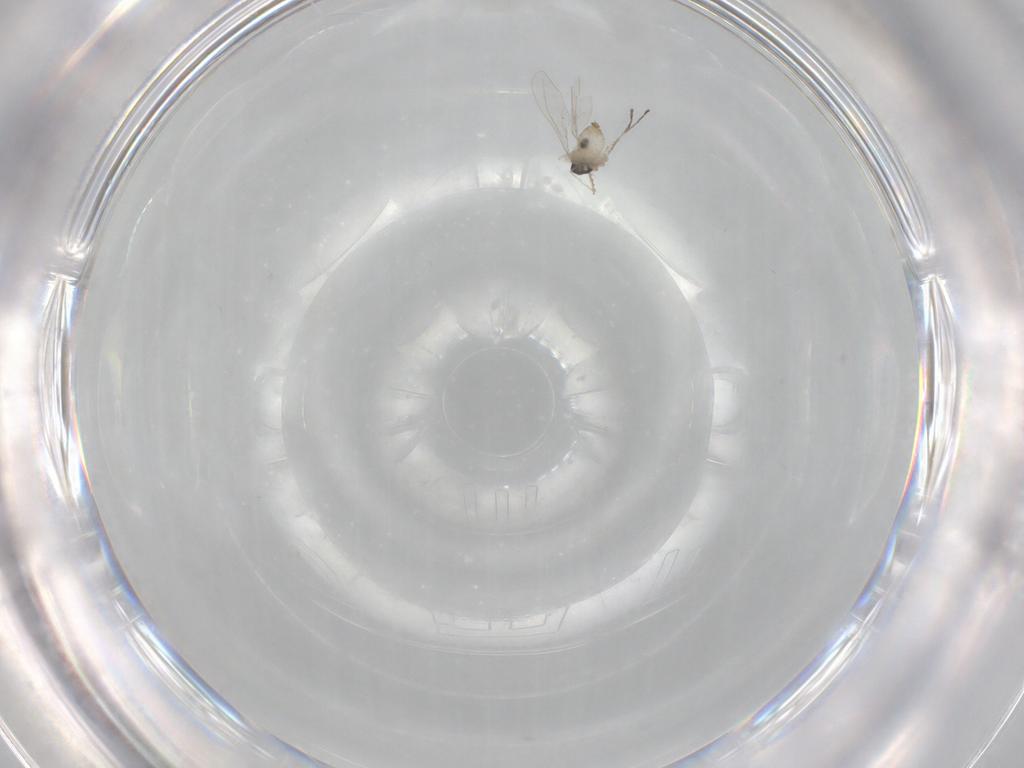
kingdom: Animalia
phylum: Arthropoda
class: Insecta
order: Diptera
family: Cecidomyiidae
